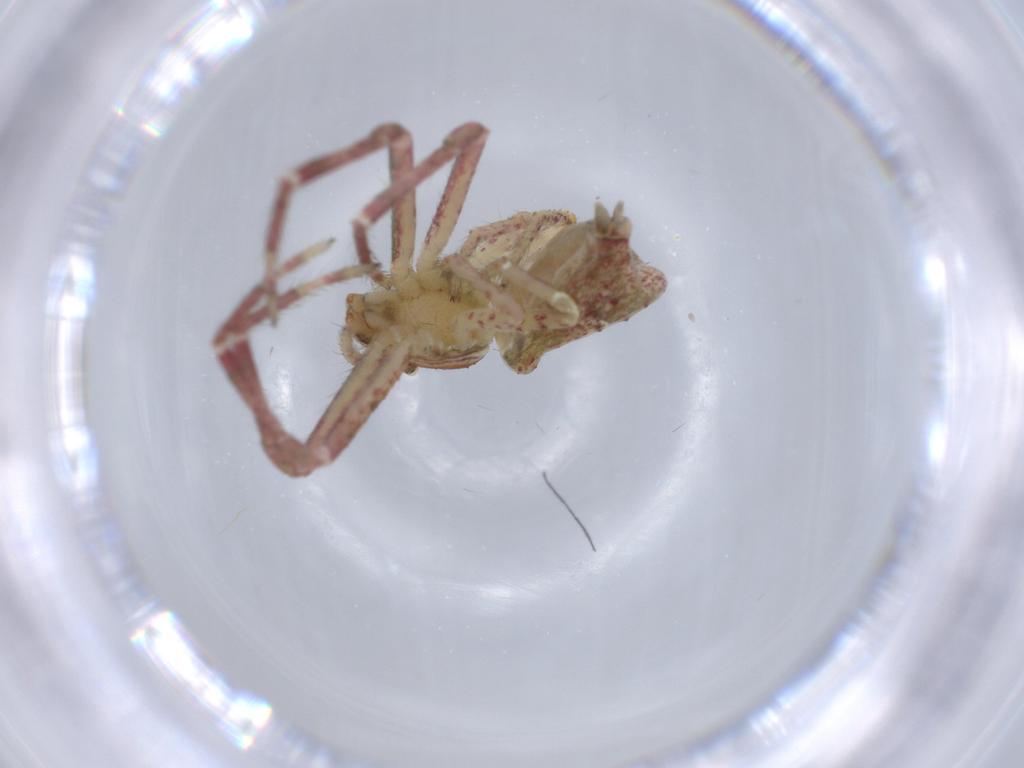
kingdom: Animalia
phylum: Arthropoda
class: Arachnida
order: Araneae
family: Thomisidae
